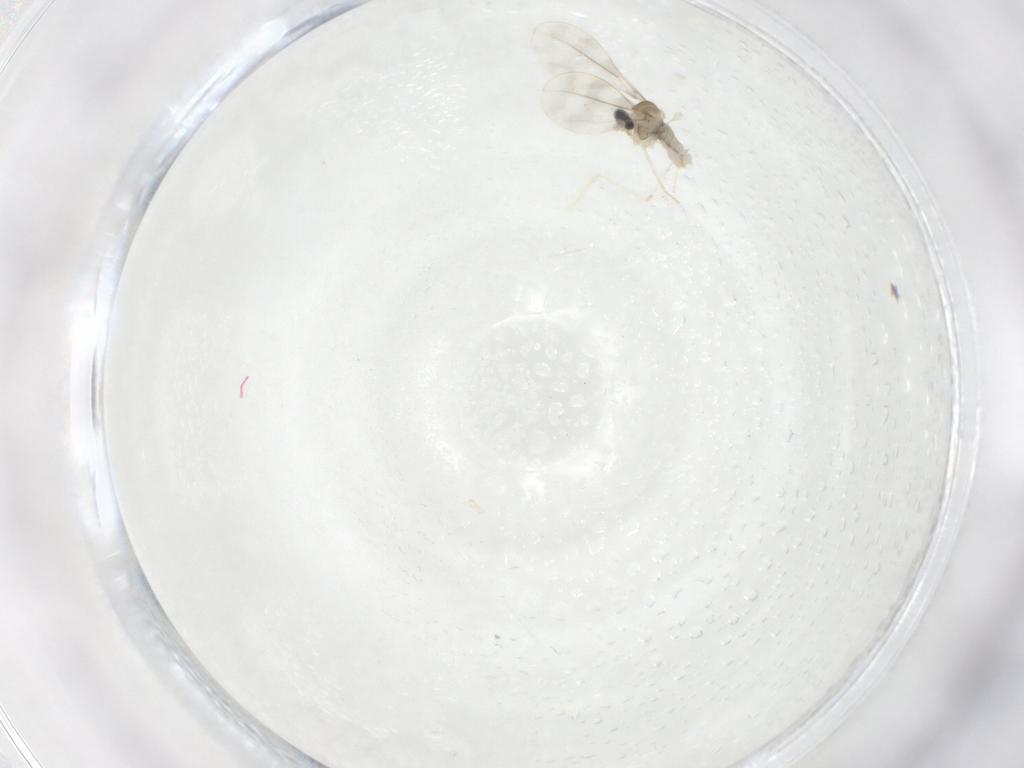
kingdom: Animalia
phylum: Arthropoda
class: Insecta
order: Diptera
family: Cecidomyiidae
